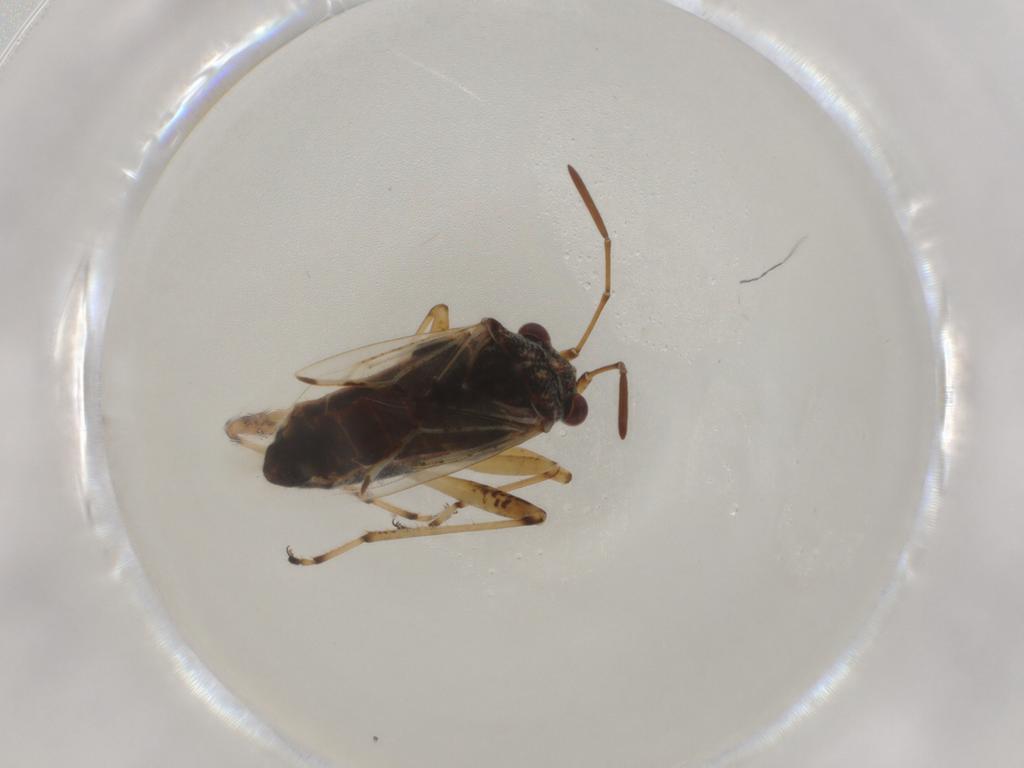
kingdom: Animalia
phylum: Arthropoda
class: Insecta
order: Hemiptera
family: Lygaeidae
